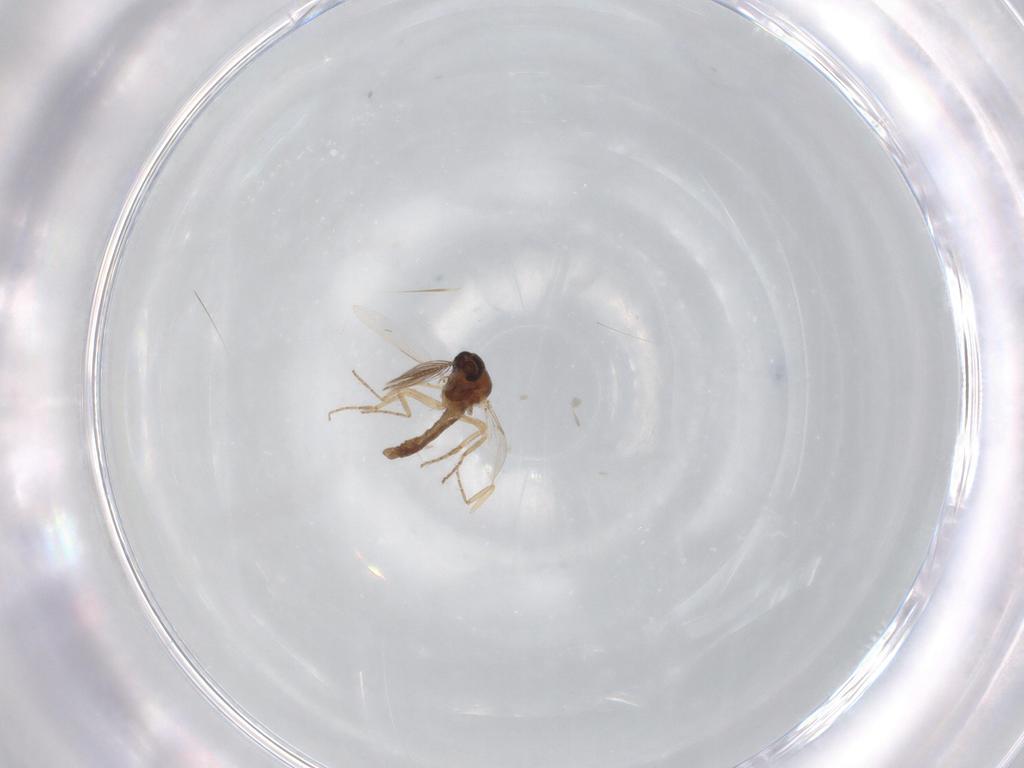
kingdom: Animalia
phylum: Arthropoda
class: Insecta
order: Diptera
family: Ceratopogonidae
